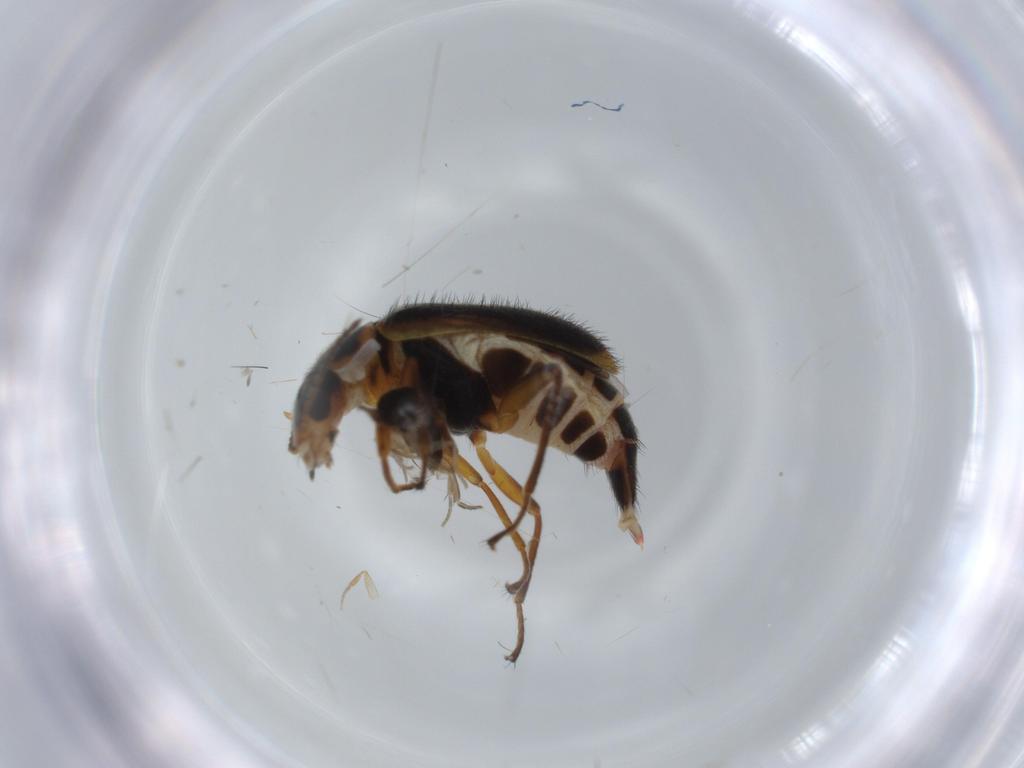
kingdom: Animalia
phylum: Arthropoda
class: Insecta
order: Coleoptera
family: Melyridae
